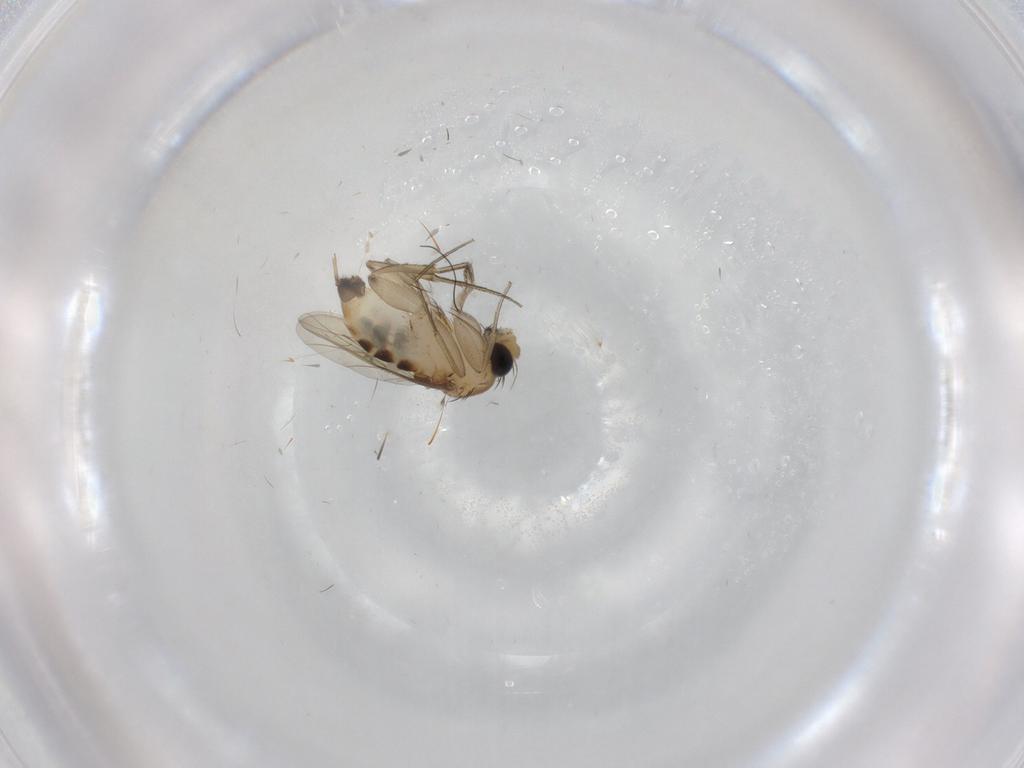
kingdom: Animalia
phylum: Arthropoda
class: Insecta
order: Diptera
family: Phoridae
